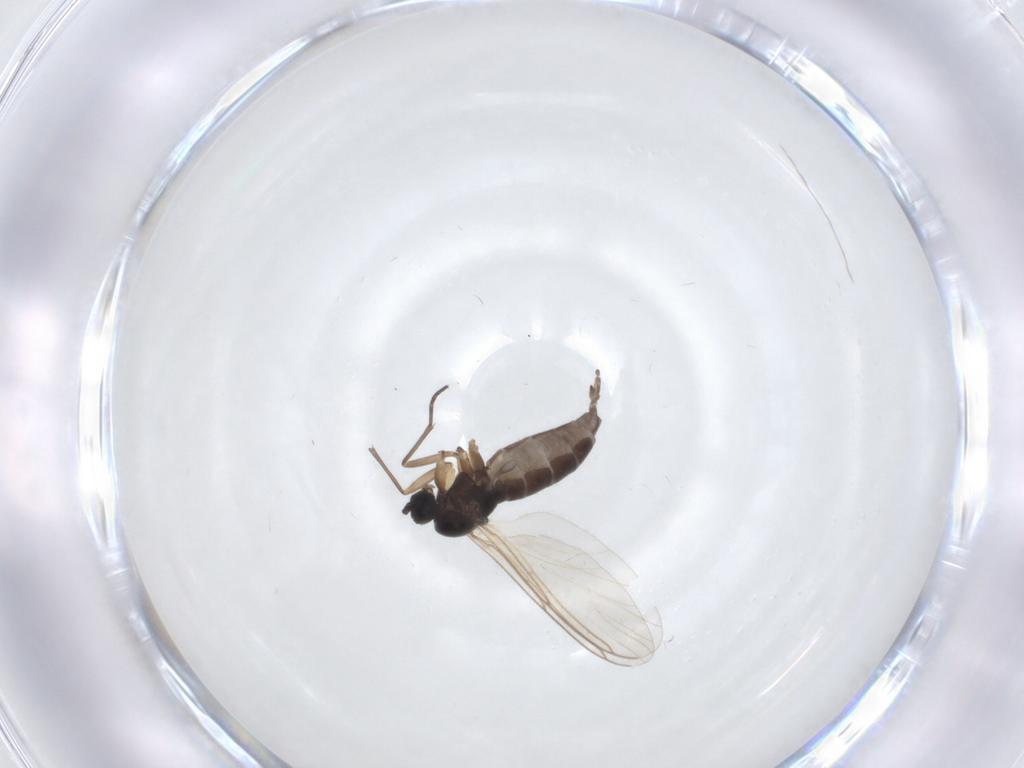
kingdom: Animalia
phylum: Arthropoda
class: Insecta
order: Diptera
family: Sciaridae
